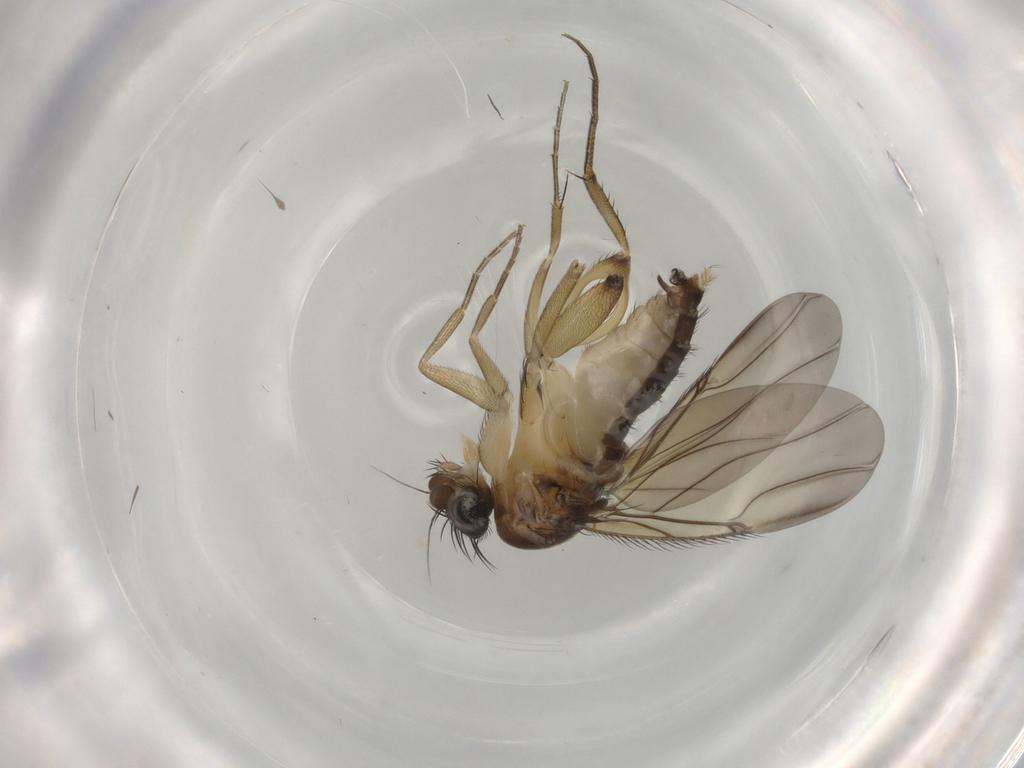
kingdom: Animalia
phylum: Arthropoda
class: Insecta
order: Diptera
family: Phoridae
